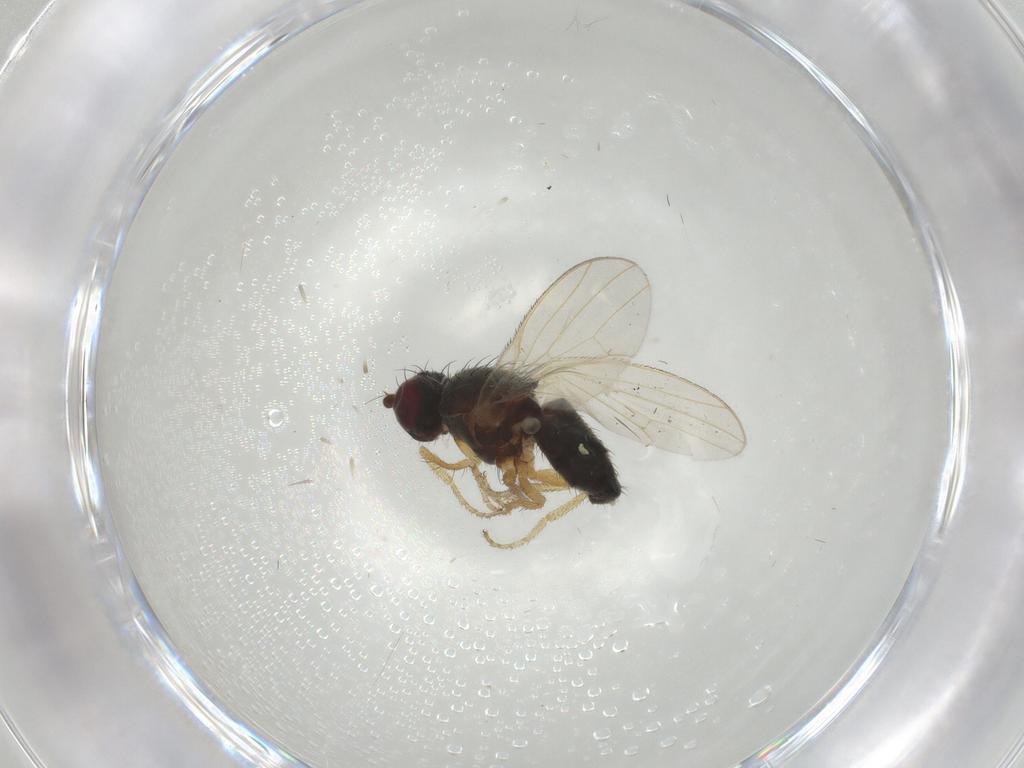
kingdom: Animalia
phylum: Arthropoda
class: Insecta
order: Diptera
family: Heleomyzidae
